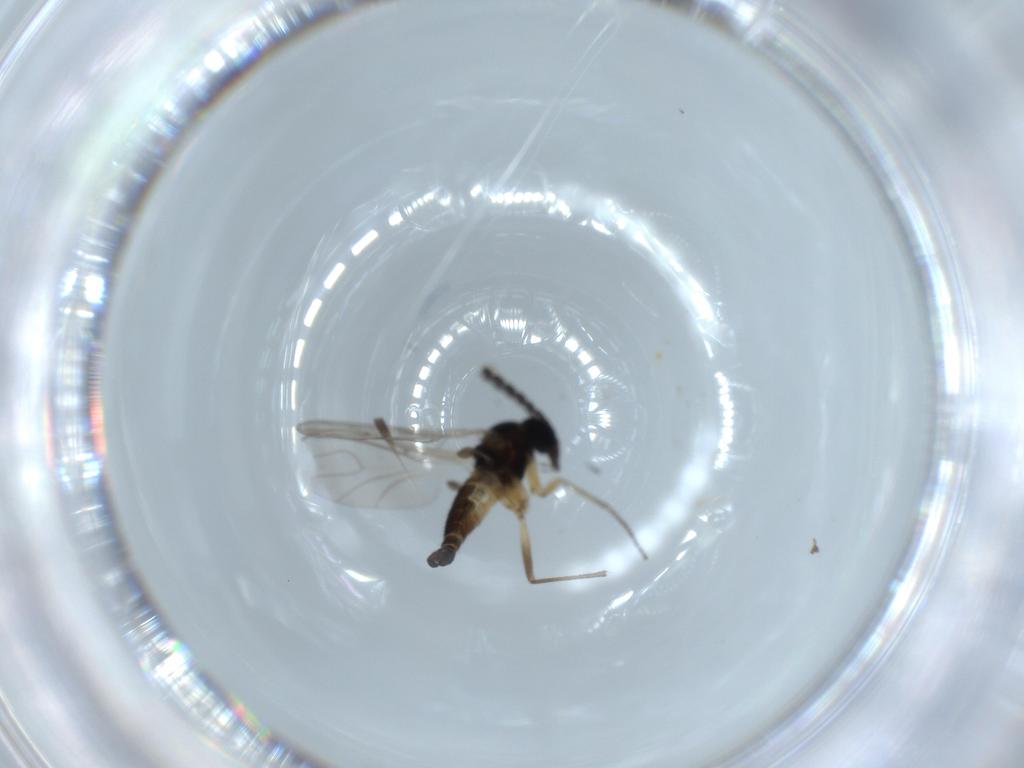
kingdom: Animalia
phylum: Arthropoda
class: Insecta
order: Diptera
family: Sciaridae
